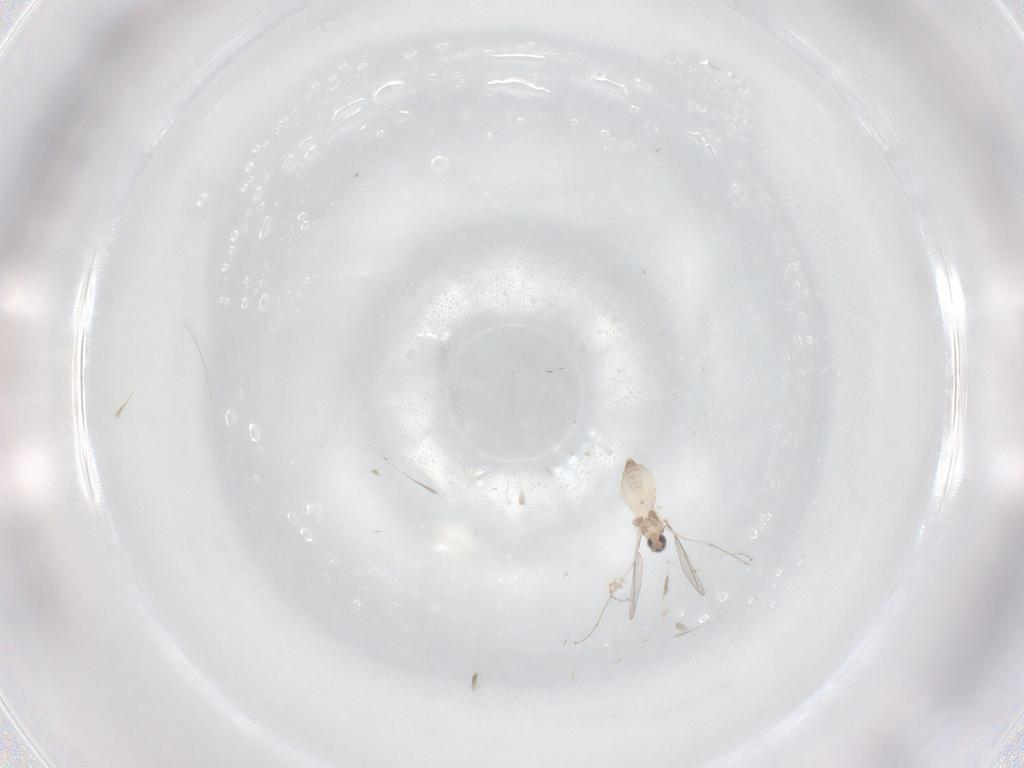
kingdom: Animalia
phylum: Arthropoda
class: Insecta
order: Diptera
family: Cecidomyiidae
